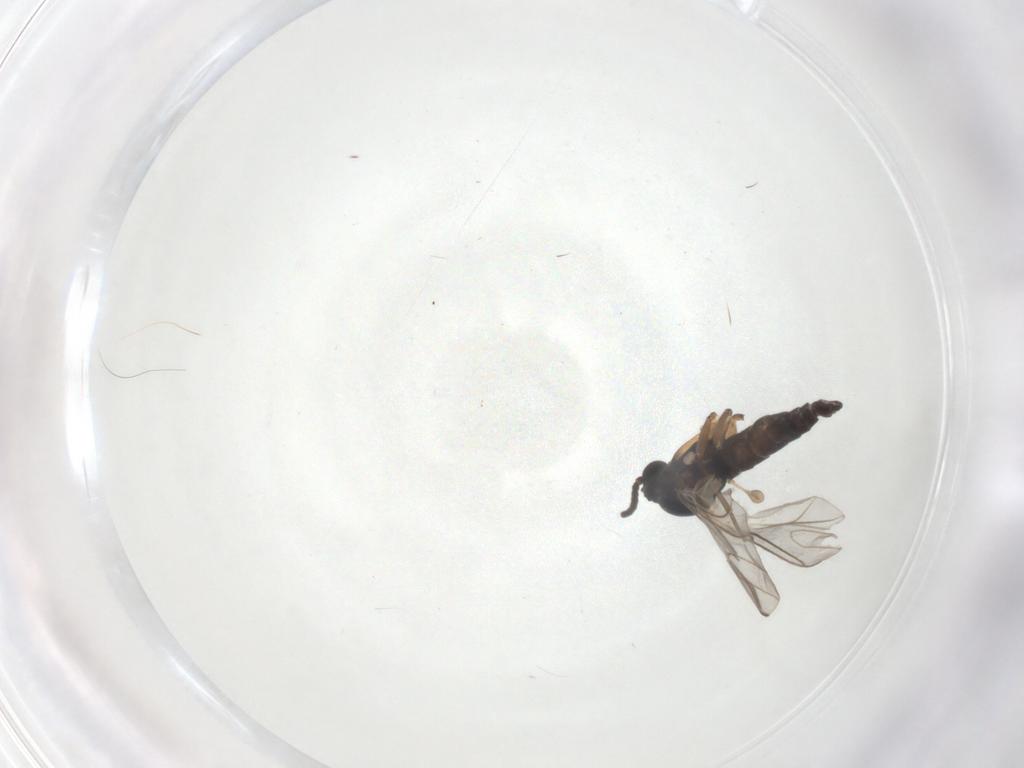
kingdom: Animalia
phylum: Arthropoda
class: Insecta
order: Diptera
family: Sciaridae
